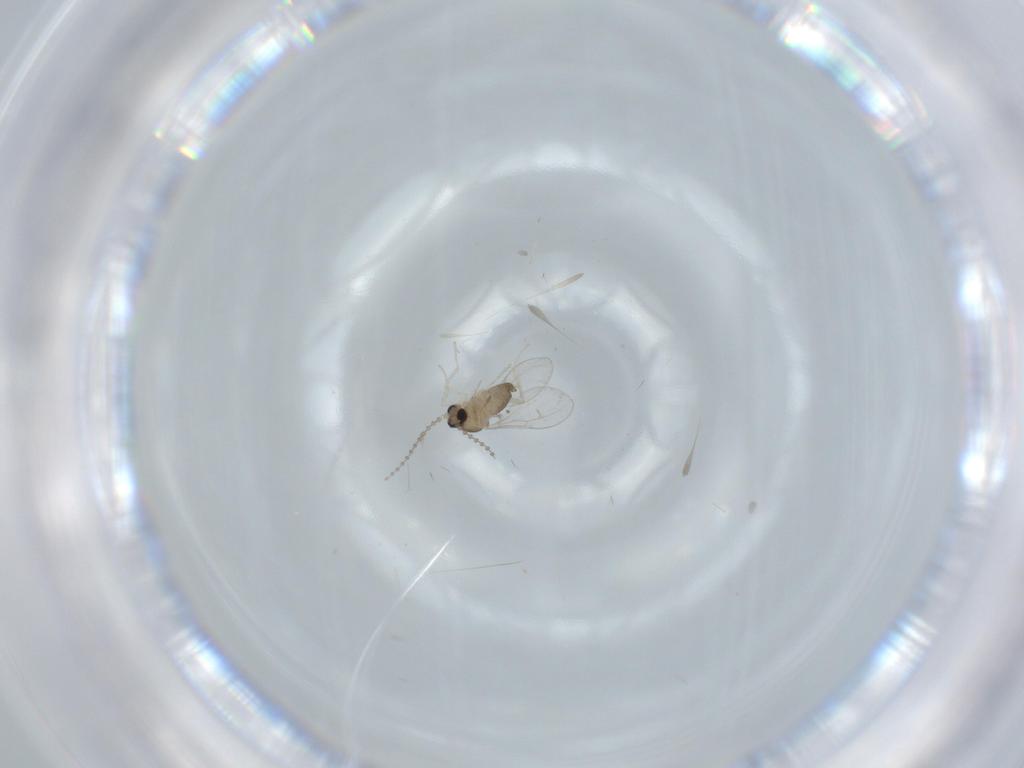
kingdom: Animalia
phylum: Arthropoda
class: Insecta
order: Diptera
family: Cecidomyiidae
